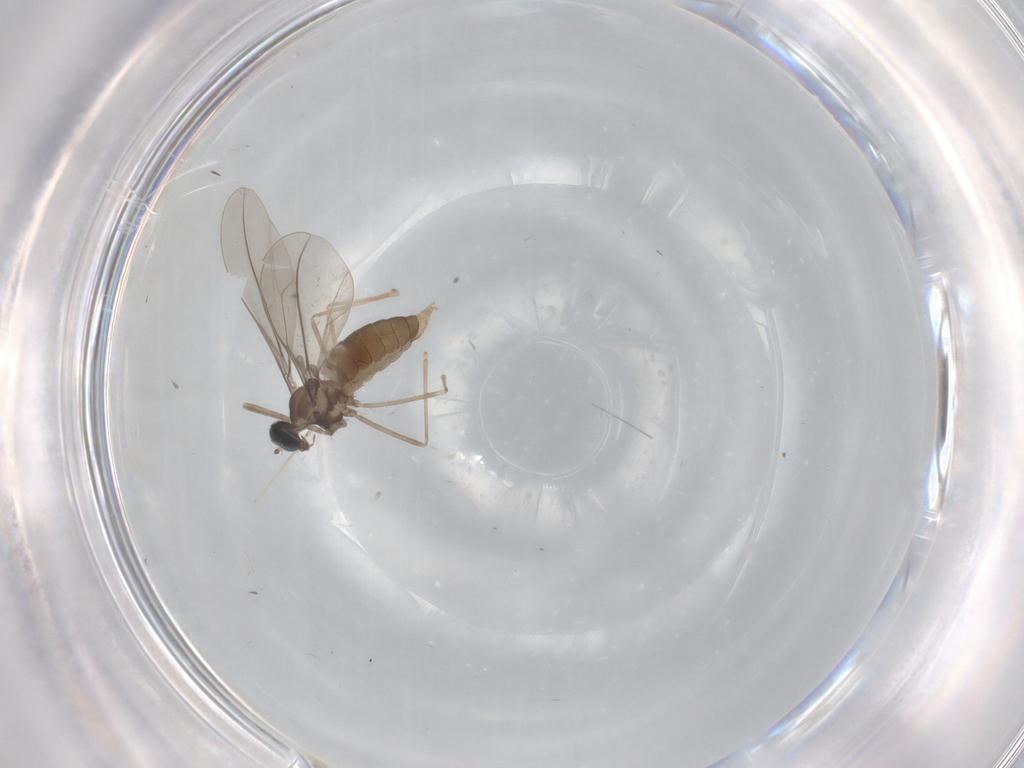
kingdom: Animalia
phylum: Arthropoda
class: Insecta
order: Diptera
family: Cecidomyiidae
